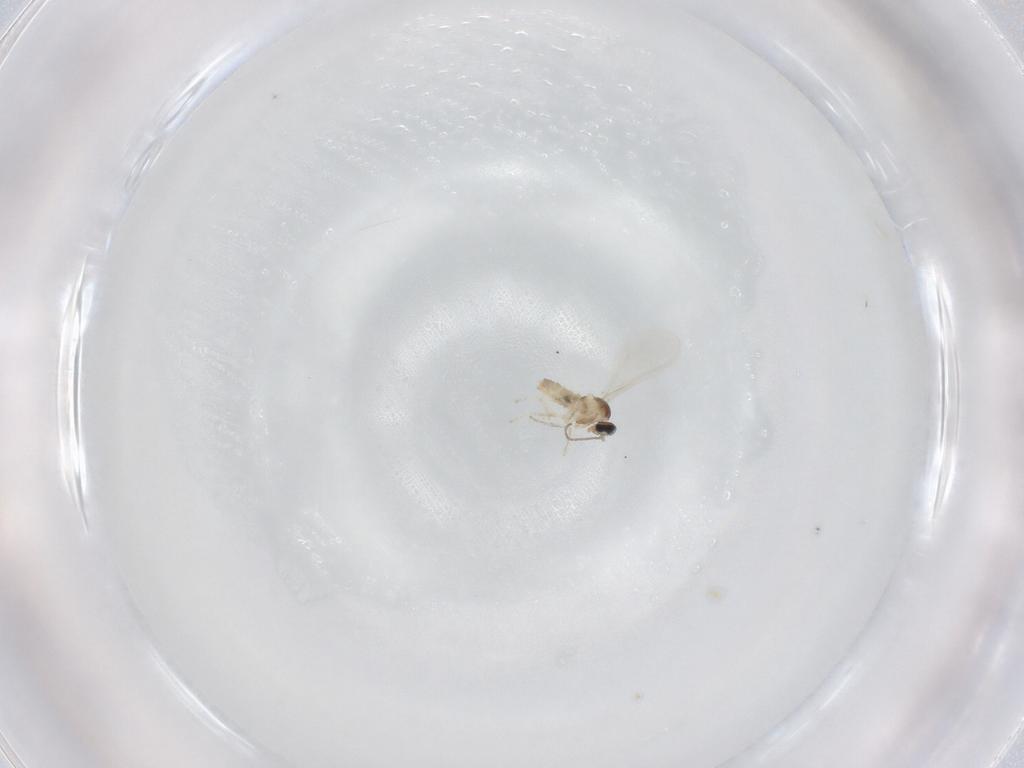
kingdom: Animalia
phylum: Arthropoda
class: Insecta
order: Diptera
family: Cecidomyiidae
